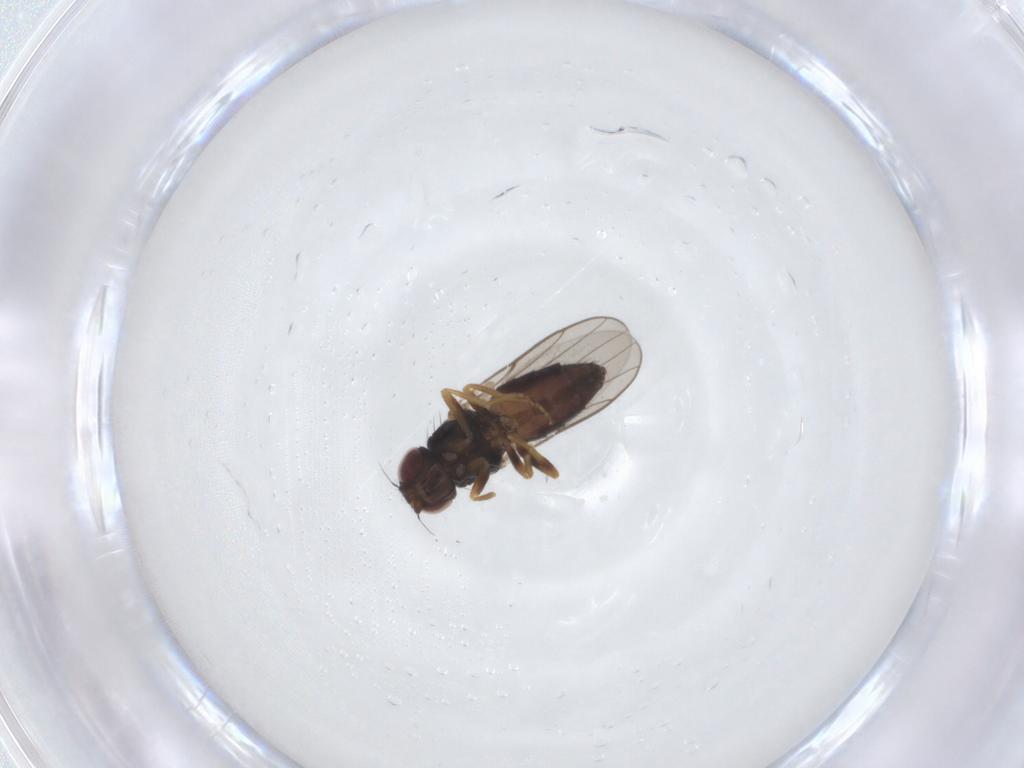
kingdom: Animalia
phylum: Arthropoda
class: Insecta
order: Diptera
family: Chloropidae
